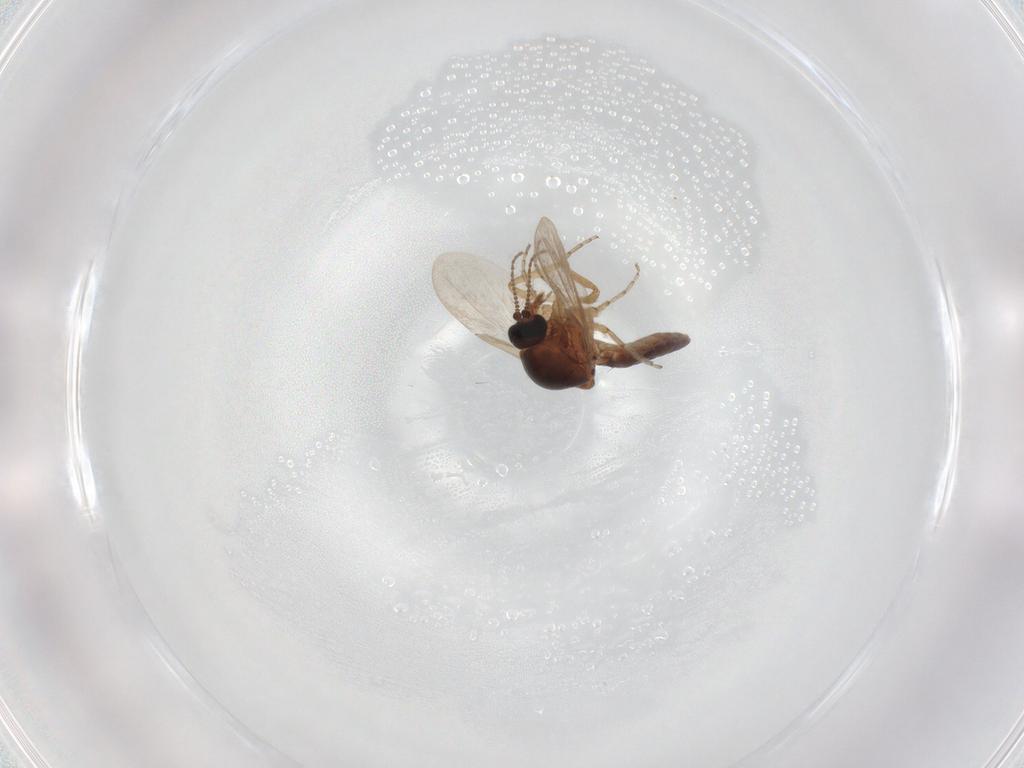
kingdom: Animalia
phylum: Arthropoda
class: Insecta
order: Diptera
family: Ceratopogonidae
